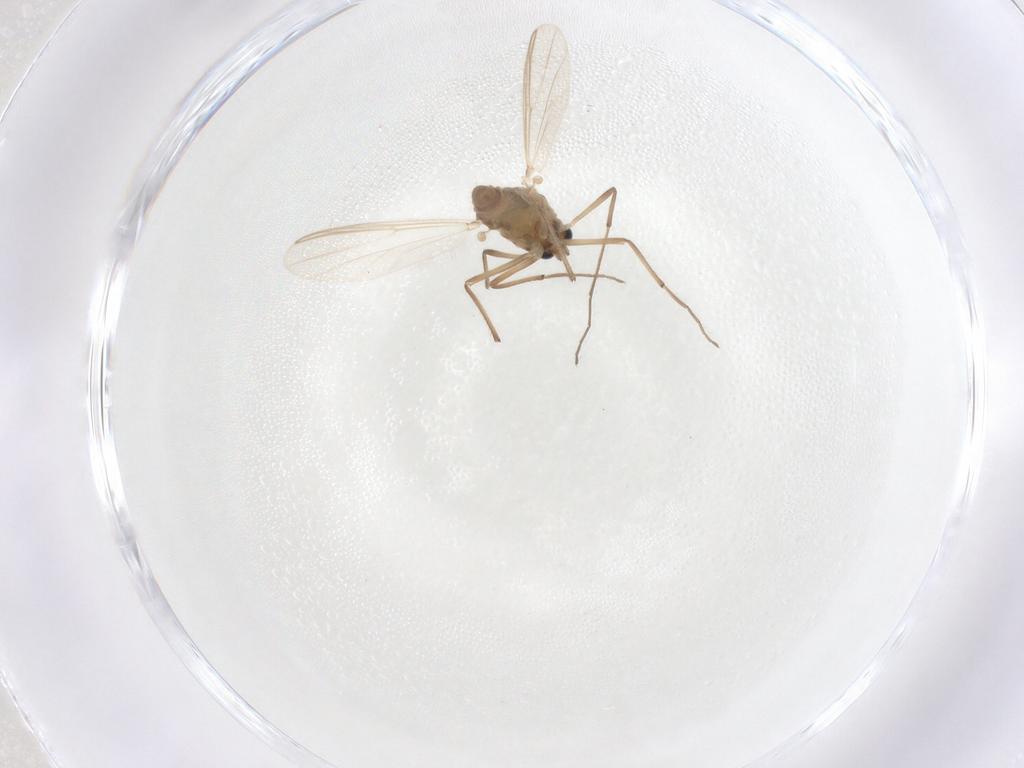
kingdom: Animalia
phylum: Arthropoda
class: Insecta
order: Diptera
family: Chironomidae
